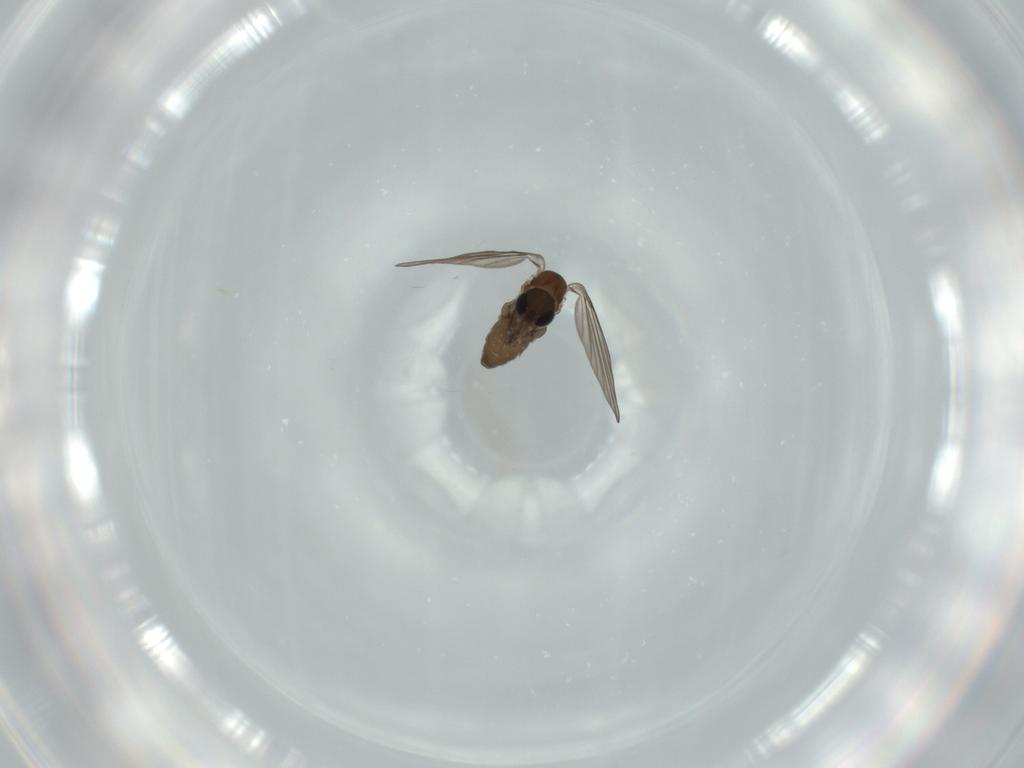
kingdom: Animalia
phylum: Arthropoda
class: Insecta
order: Diptera
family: Psychodidae
